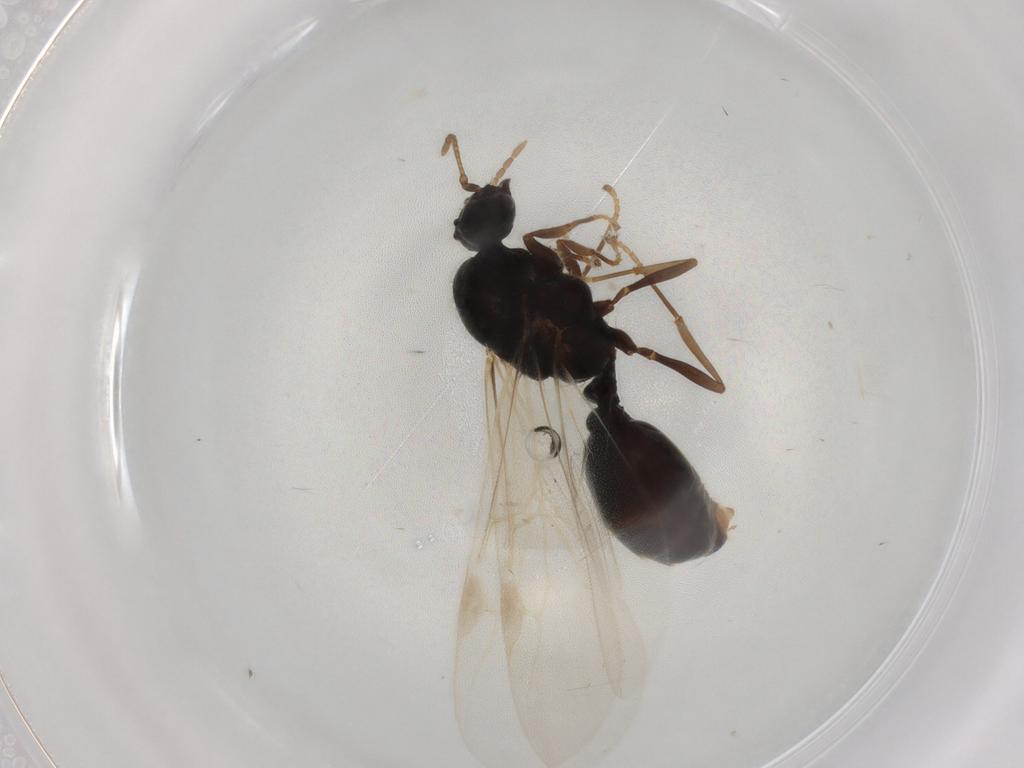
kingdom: Animalia
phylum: Arthropoda
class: Insecta
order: Hymenoptera
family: Formicidae
